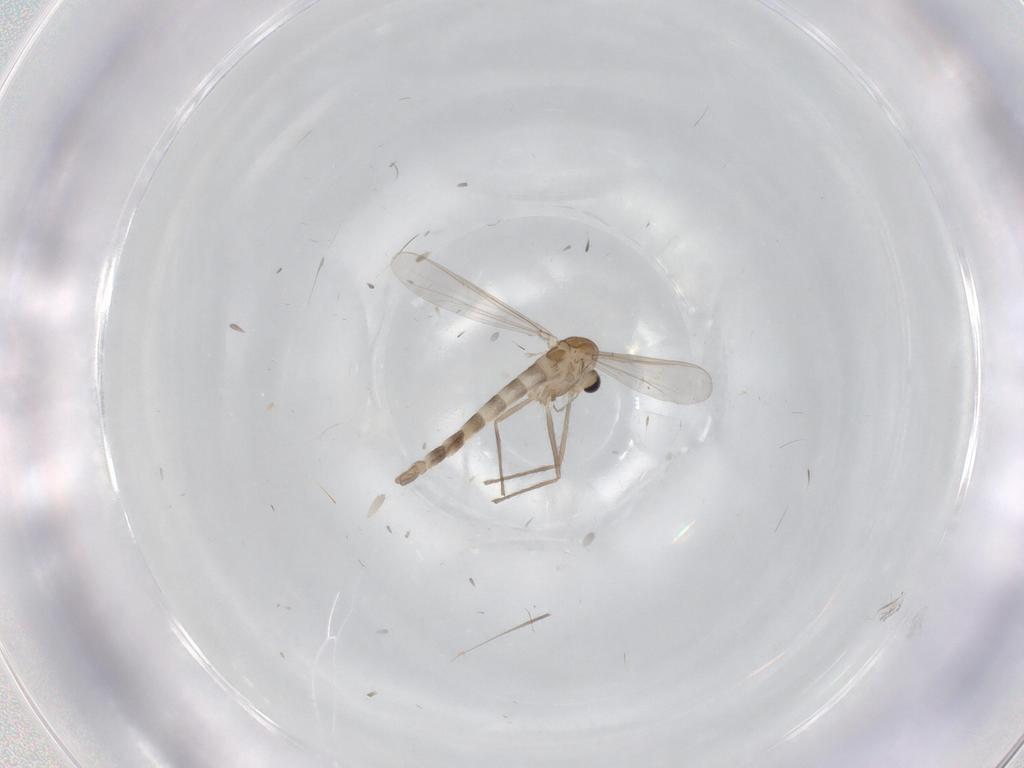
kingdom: Animalia
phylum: Arthropoda
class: Insecta
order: Diptera
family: Chironomidae
